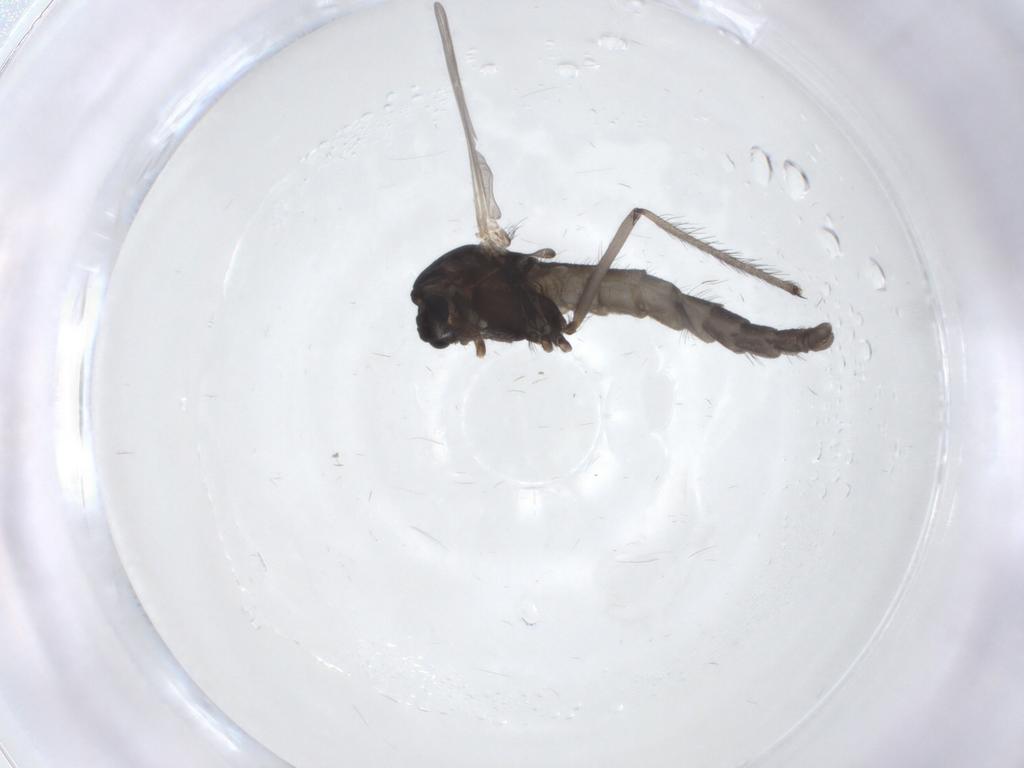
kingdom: Animalia
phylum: Arthropoda
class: Insecta
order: Diptera
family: Chironomidae
